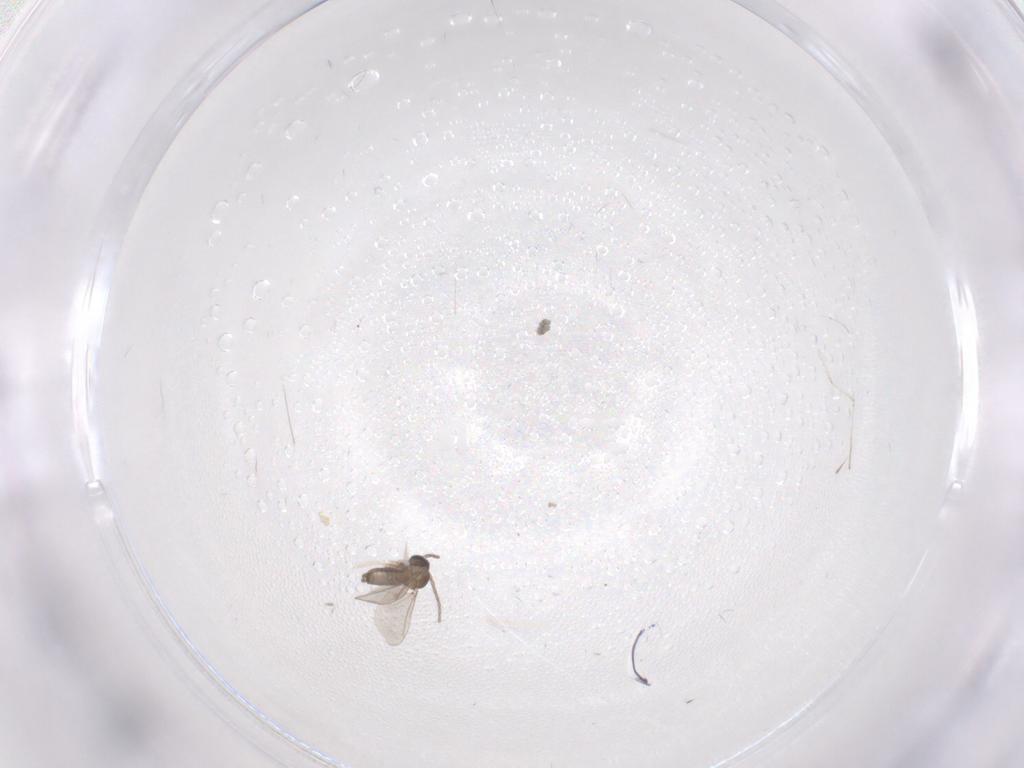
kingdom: Animalia
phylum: Arthropoda
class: Insecta
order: Diptera
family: Cecidomyiidae
